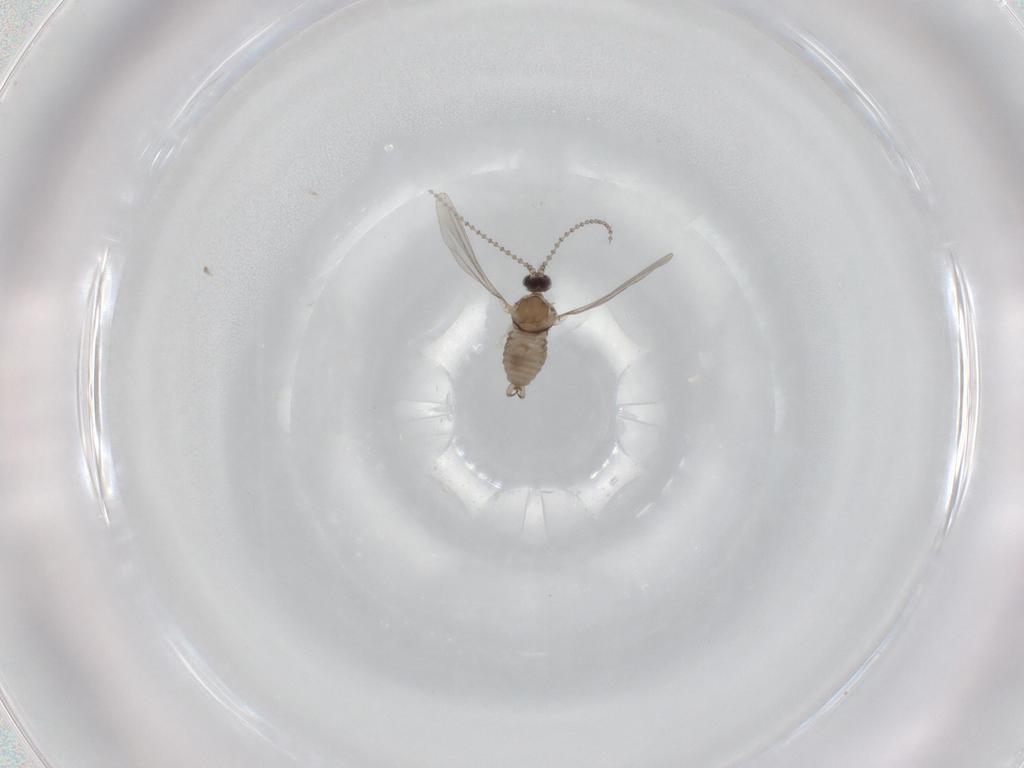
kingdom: Animalia
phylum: Arthropoda
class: Insecta
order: Diptera
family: Cecidomyiidae
